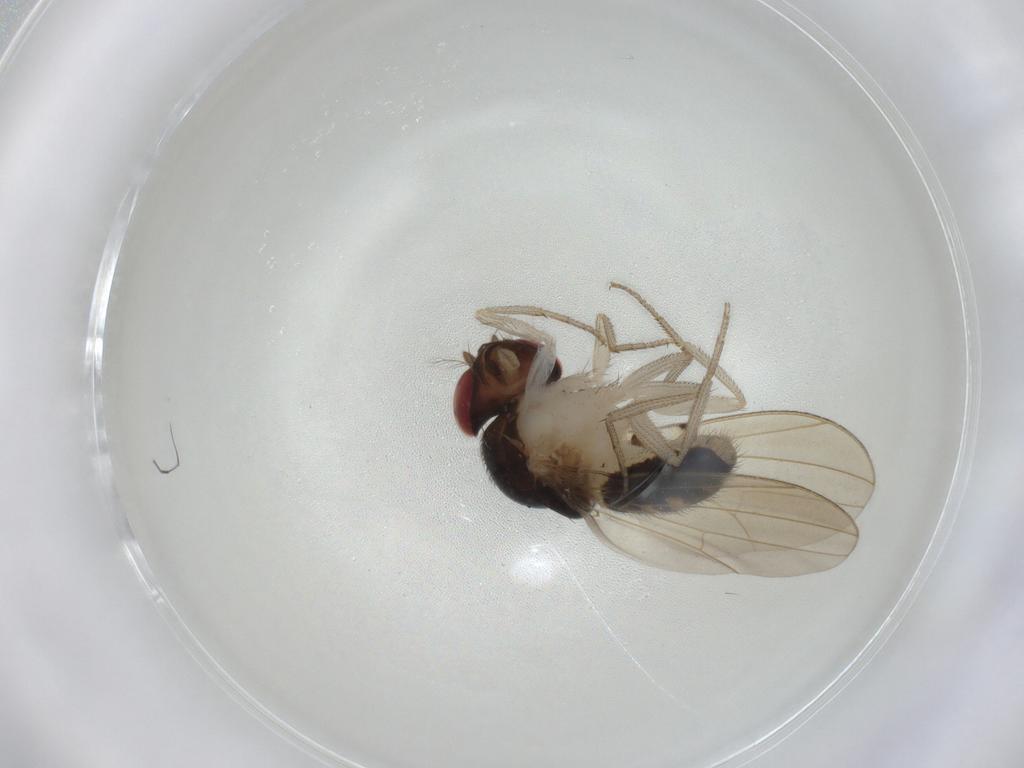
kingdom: Animalia
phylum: Arthropoda
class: Insecta
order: Diptera
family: Drosophilidae
